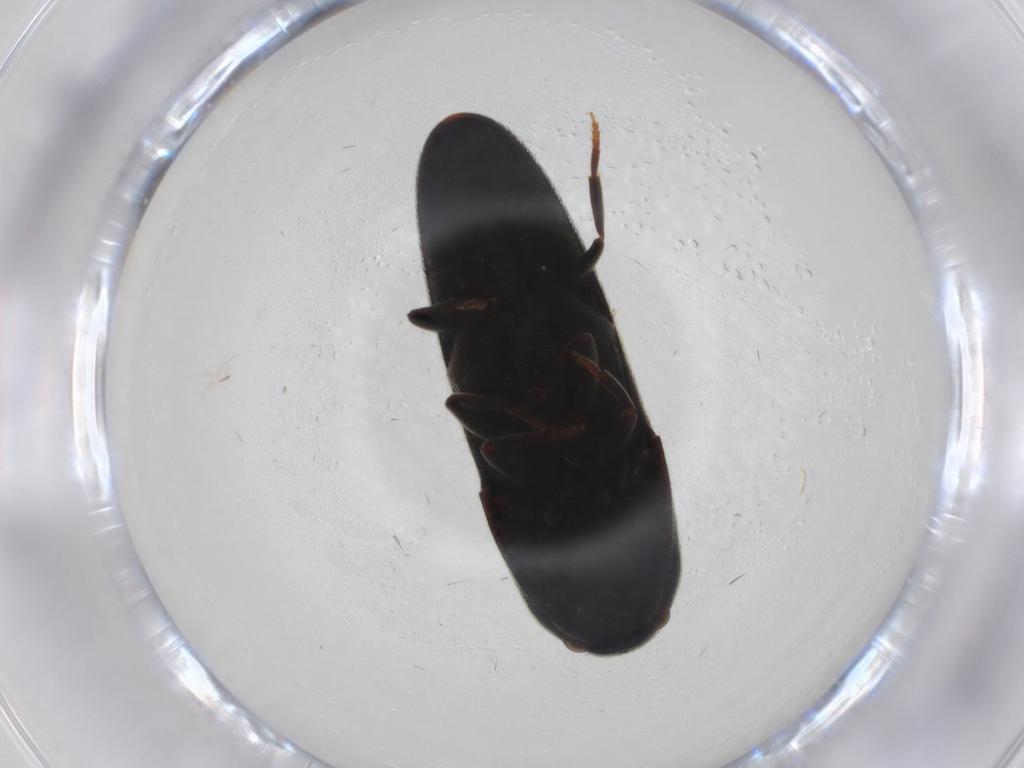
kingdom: Animalia
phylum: Arthropoda
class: Insecta
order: Coleoptera
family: Eucnemidae
